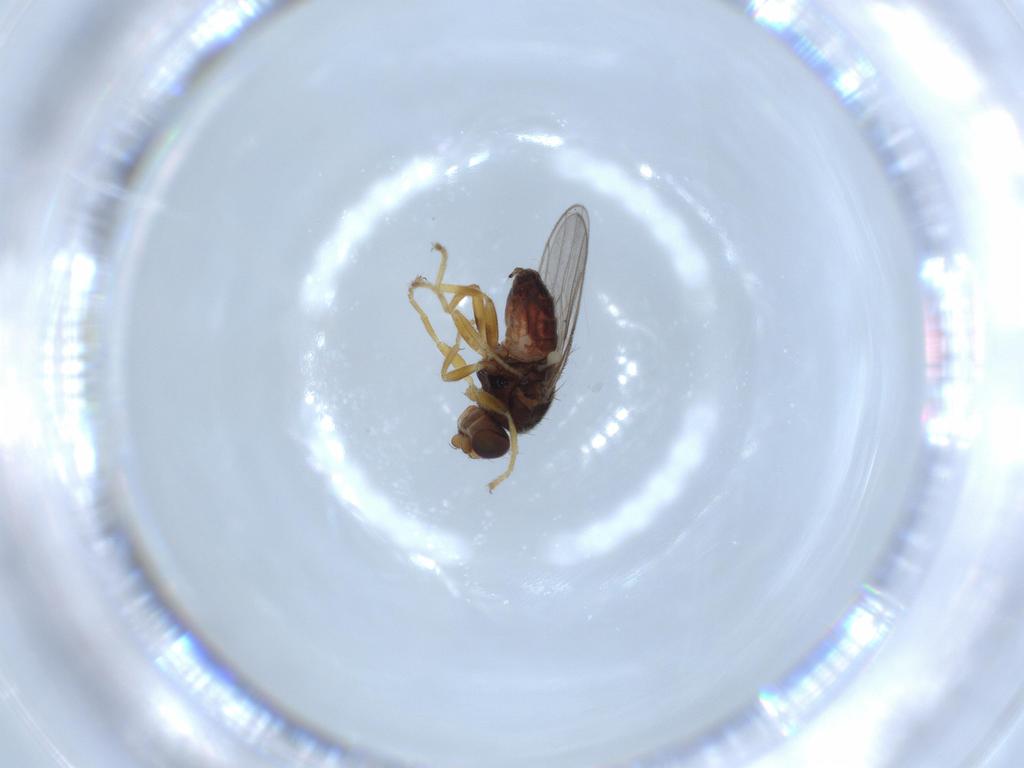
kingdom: Animalia
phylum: Arthropoda
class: Insecta
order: Diptera
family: Chloropidae
